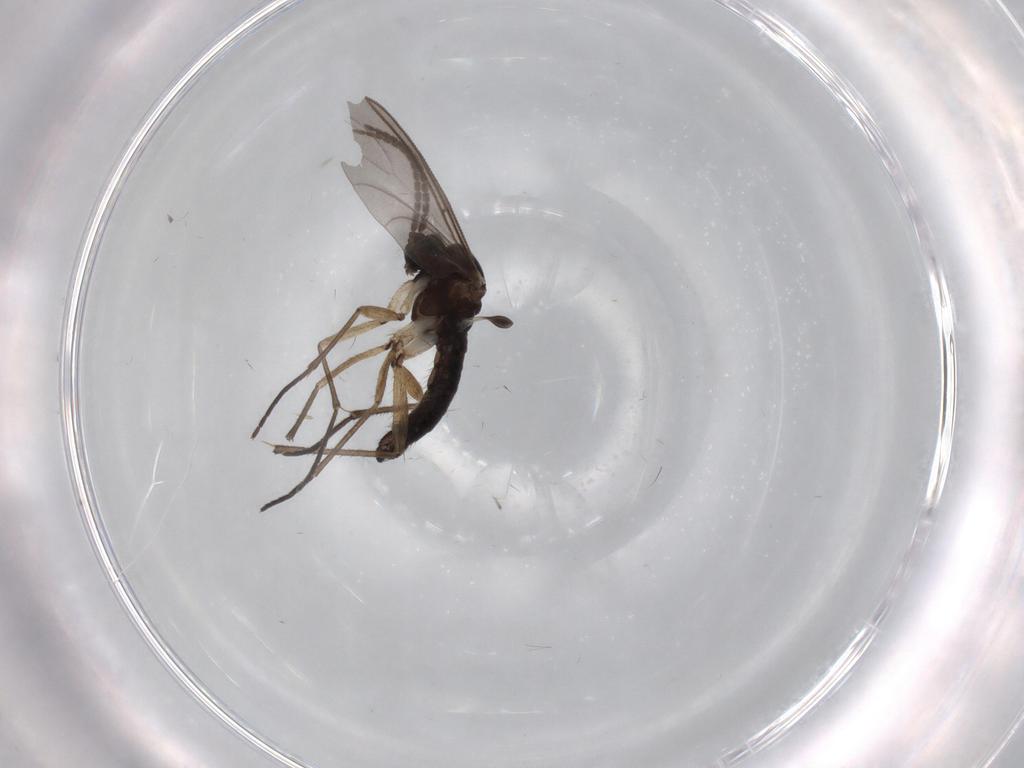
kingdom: Animalia
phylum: Arthropoda
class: Insecta
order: Diptera
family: Sciaridae
